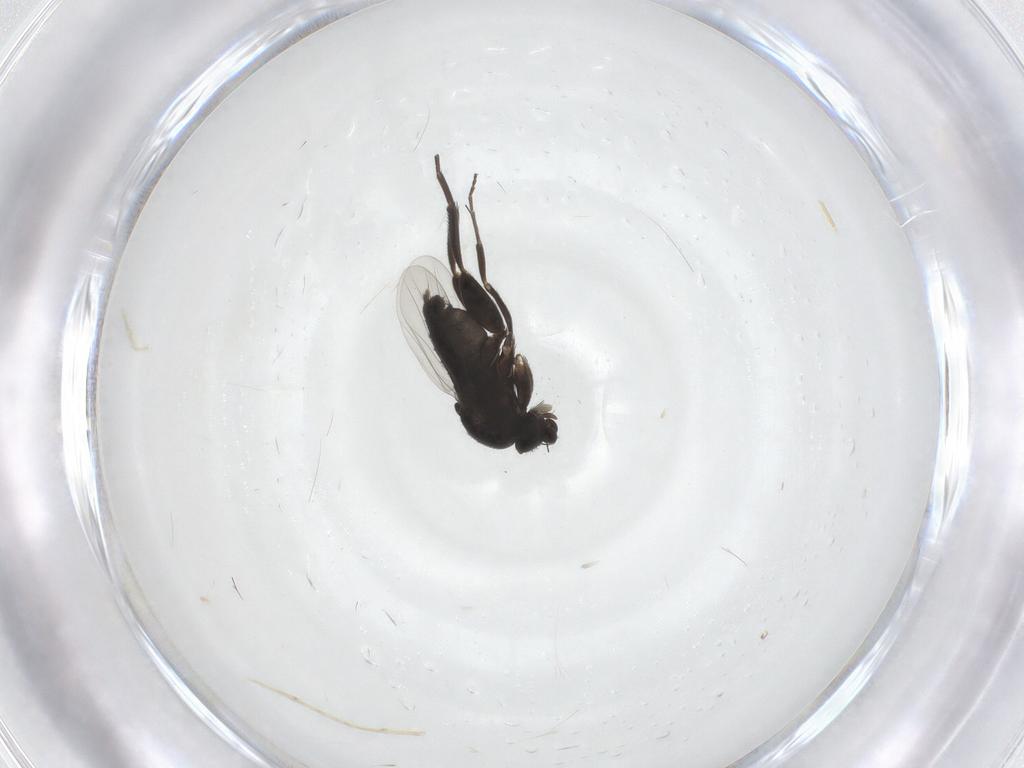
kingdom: Animalia
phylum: Arthropoda
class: Insecta
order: Diptera
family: Phoridae
